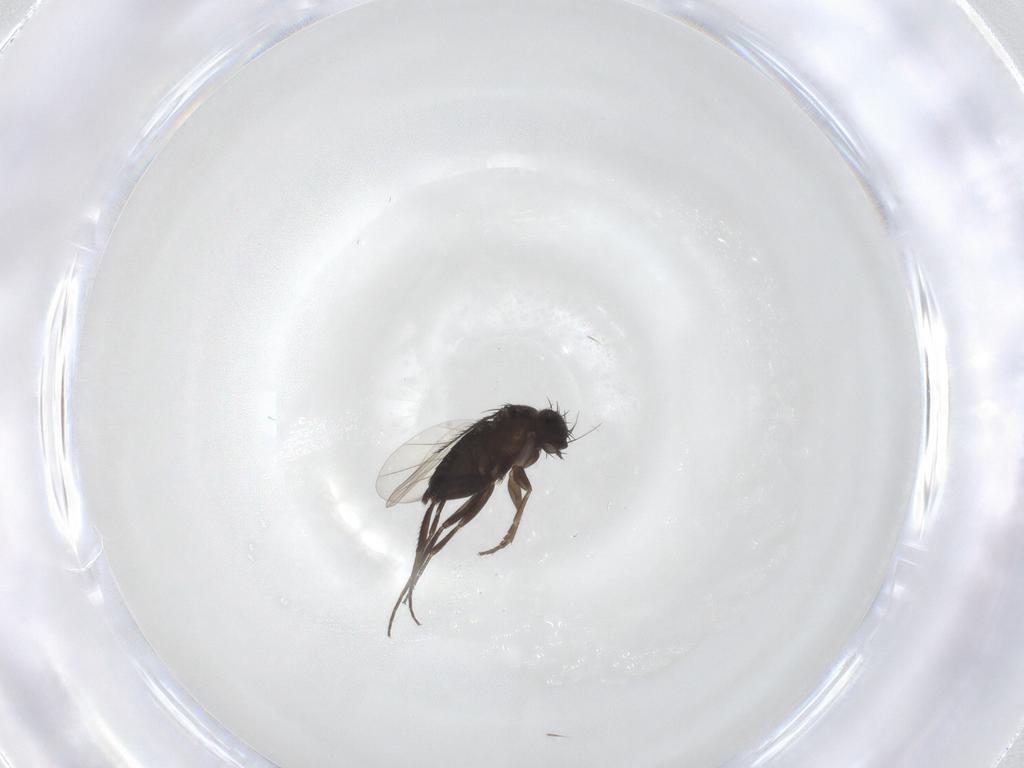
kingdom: Animalia
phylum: Arthropoda
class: Insecta
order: Diptera
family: Phoridae
